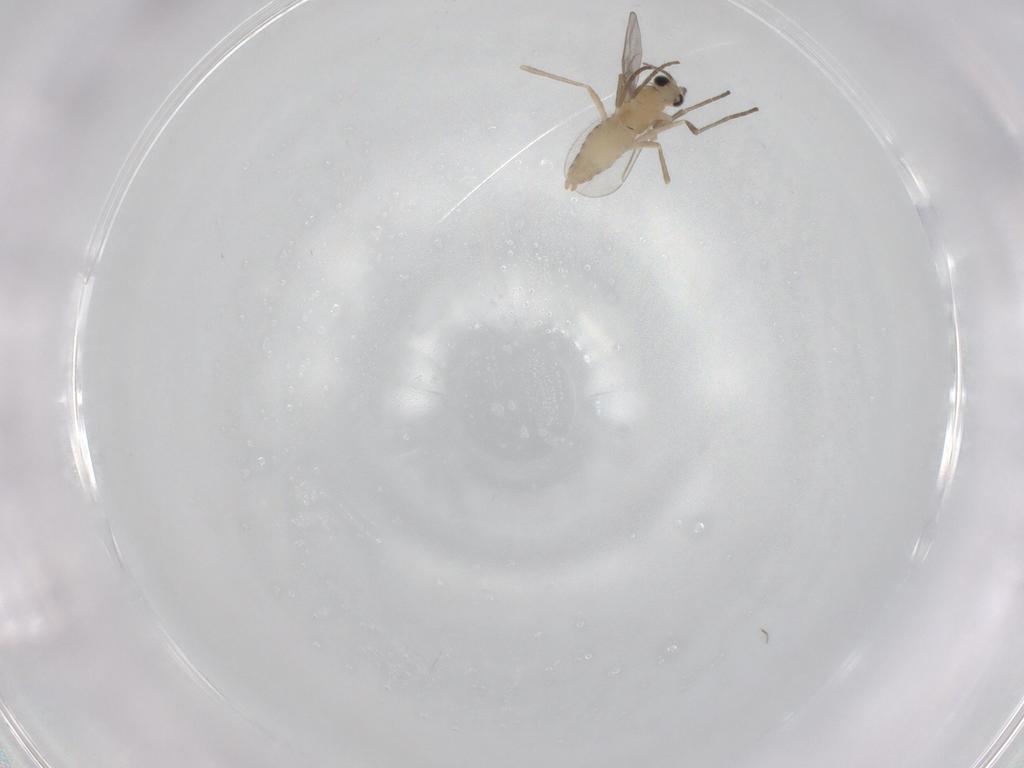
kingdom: Animalia
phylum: Arthropoda
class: Insecta
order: Diptera
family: Cecidomyiidae
